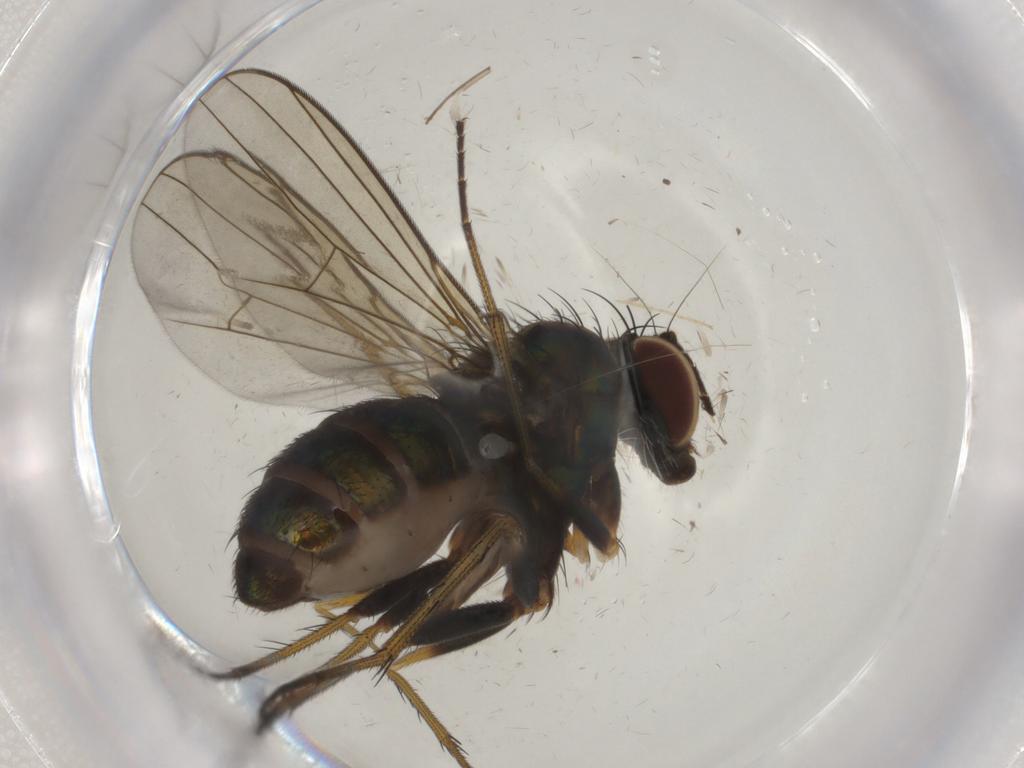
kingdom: Animalia
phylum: Arthropoda
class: Insecta
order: Diptera
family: Dolichopodidae
